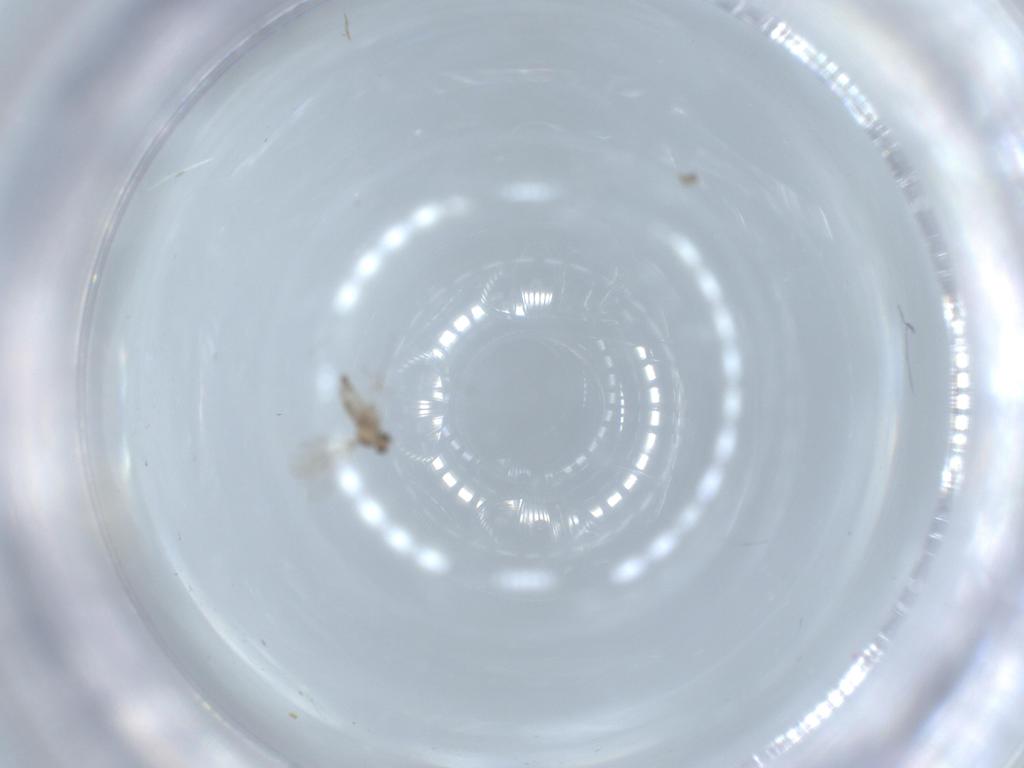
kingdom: Animalia
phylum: Arthropoda
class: Insecta
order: Diptera
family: Cecidomyiidae
